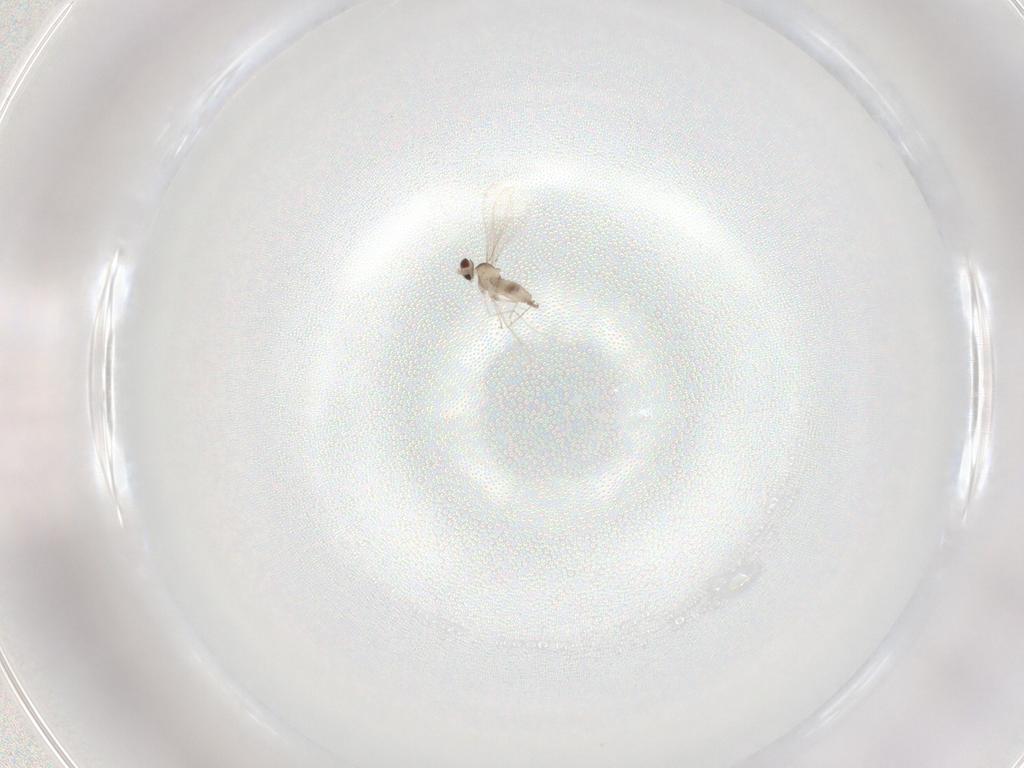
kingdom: Animalia
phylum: Arthropoda
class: Insecta
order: Diptera
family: Cecidomyiidae
